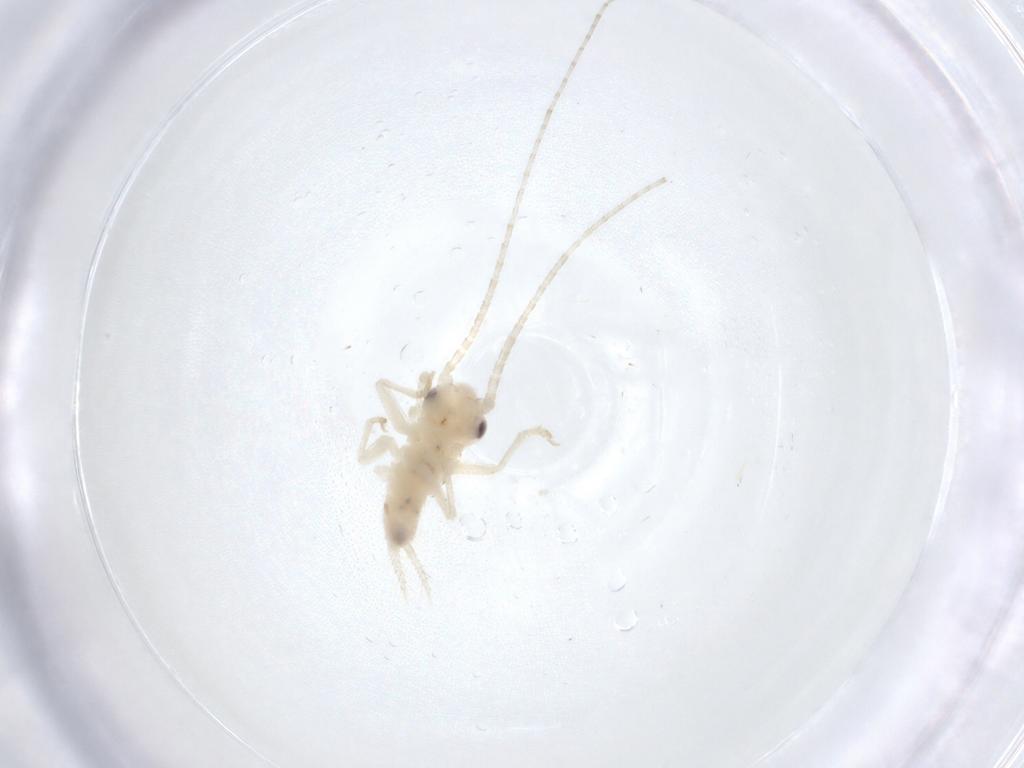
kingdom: Animalia
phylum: Arthropoda
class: Insecta
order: Orthoptera
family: Trigonidiidae
